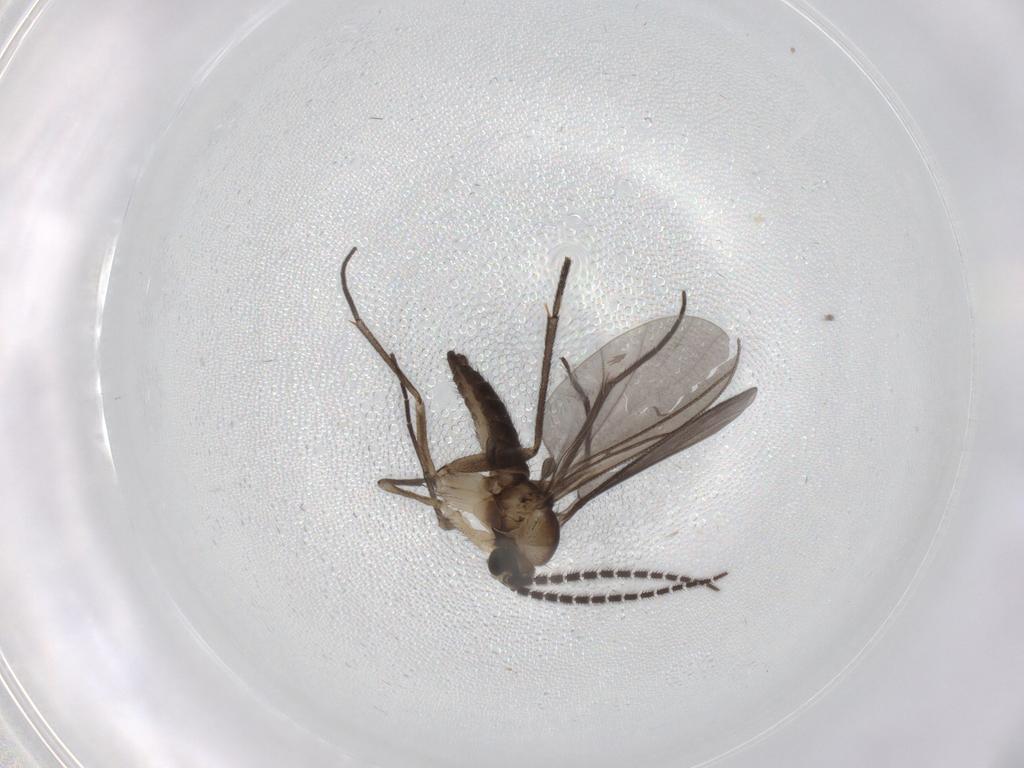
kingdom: Animalia
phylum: Arthropoda
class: Insecta
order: Diptera
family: Sciaridae
